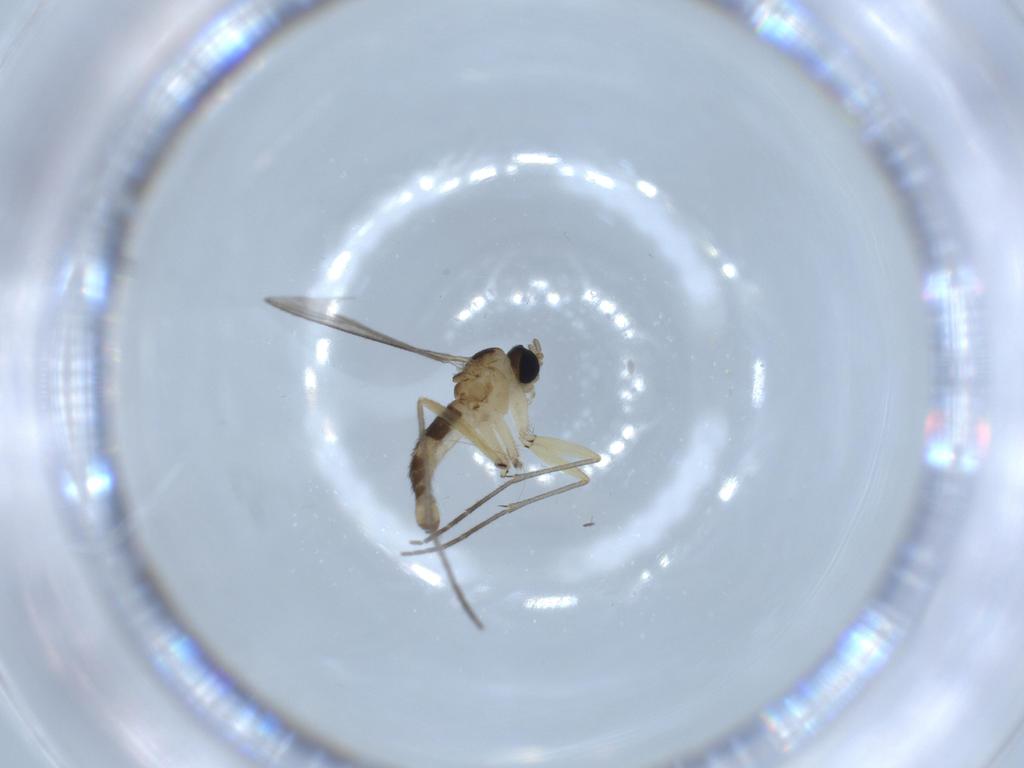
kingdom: Animalia
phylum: Arthropoda
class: Insecta
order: Diptera
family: Sciaridae
